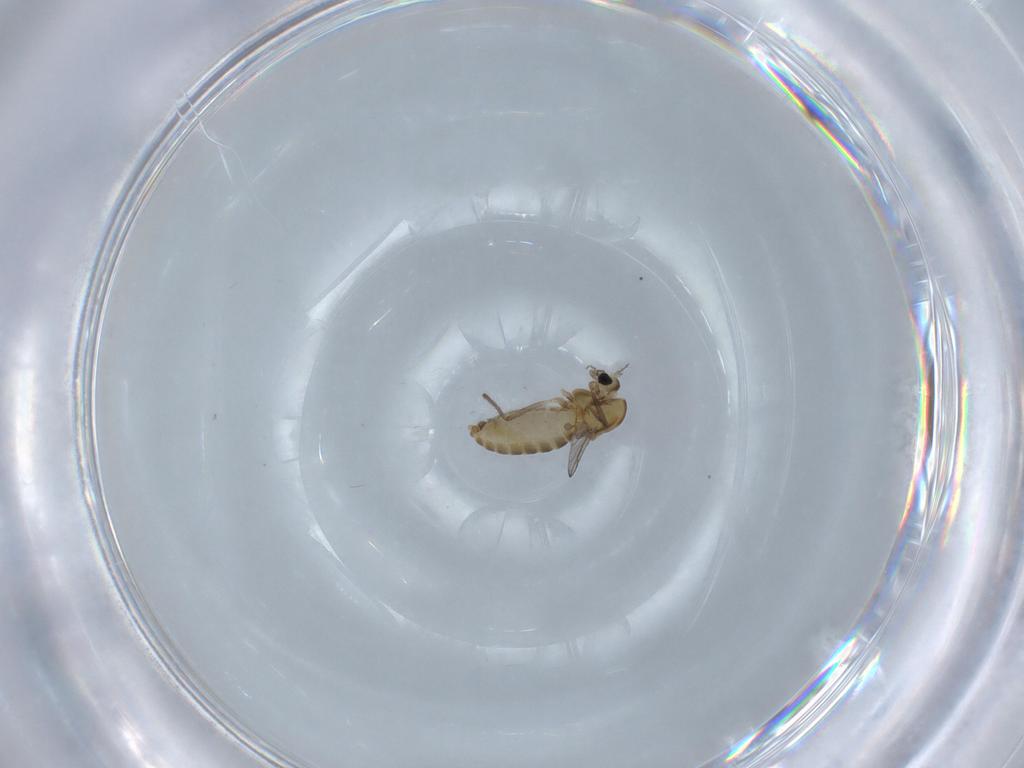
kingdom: Animalia
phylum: Arthropoda
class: Insecta
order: Diptera
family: Chironomidae
